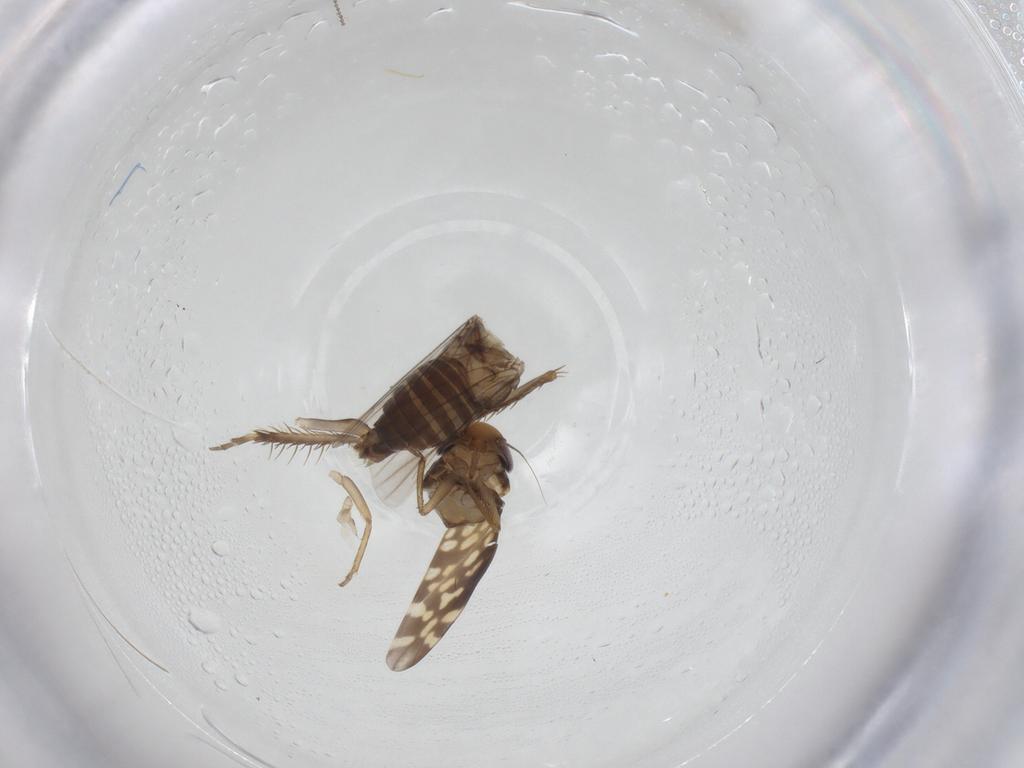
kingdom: Animalia
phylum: Arthropoda
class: Insecta
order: Hemiptera
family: Cicadellidae
